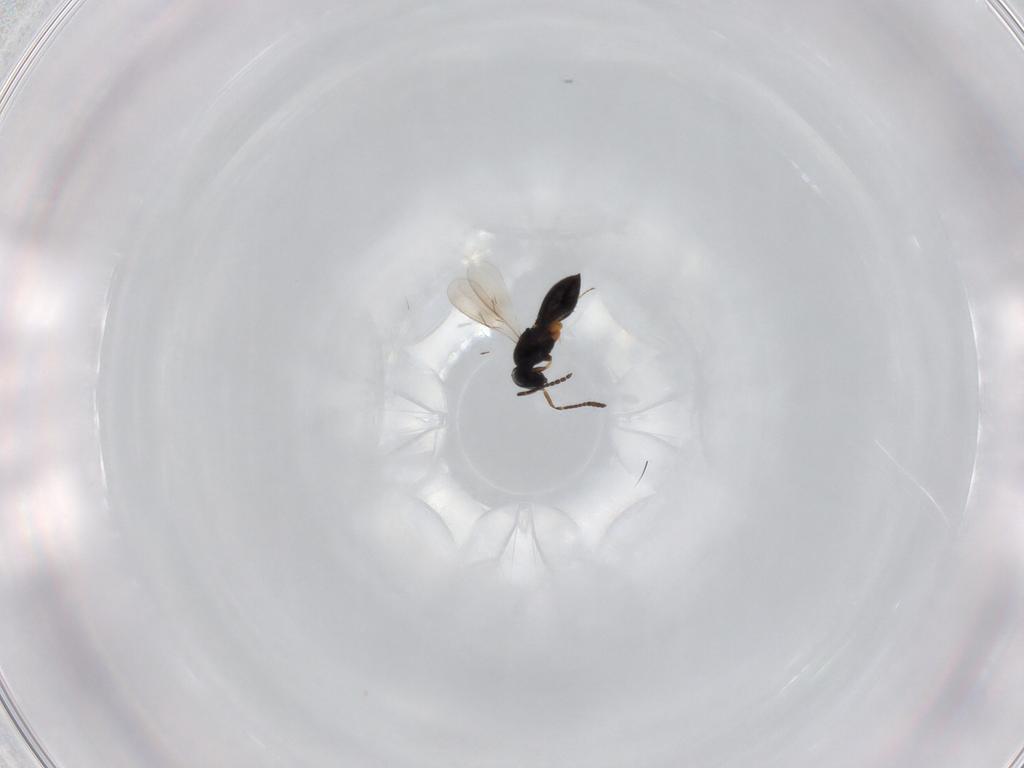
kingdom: Animalia
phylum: Arthropoda
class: Insecta
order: Hymenoptera
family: Scelionidae
